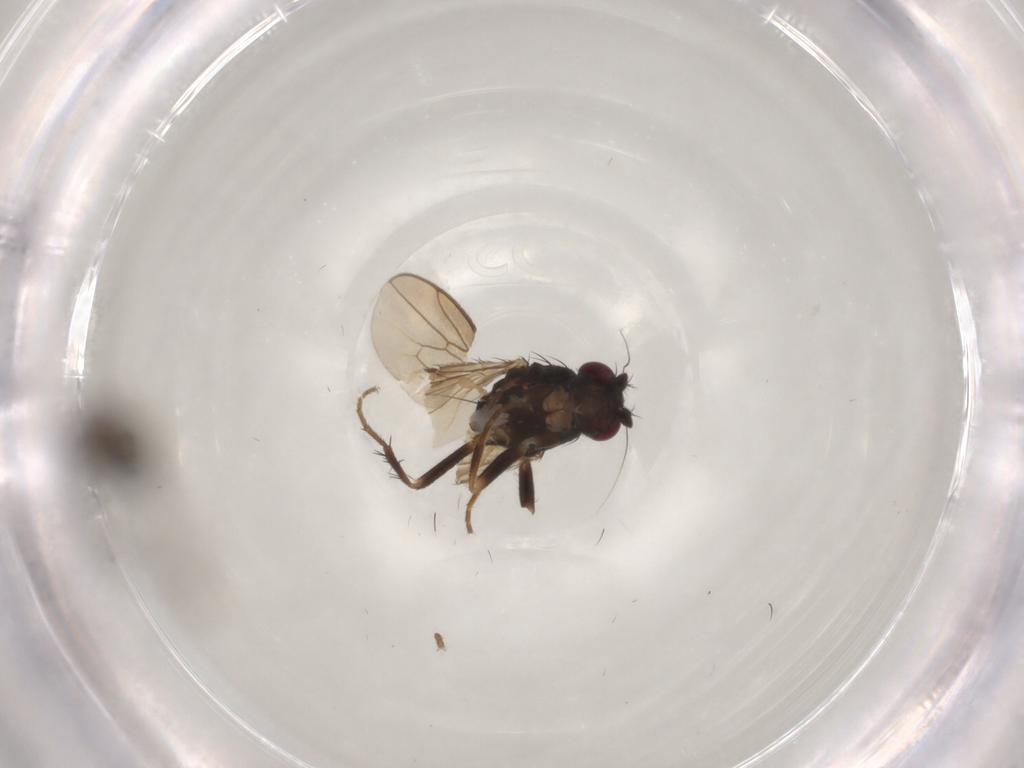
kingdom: Animalia
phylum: Arthropoda
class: Insecta
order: Diptera
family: Sphaeroceridae
